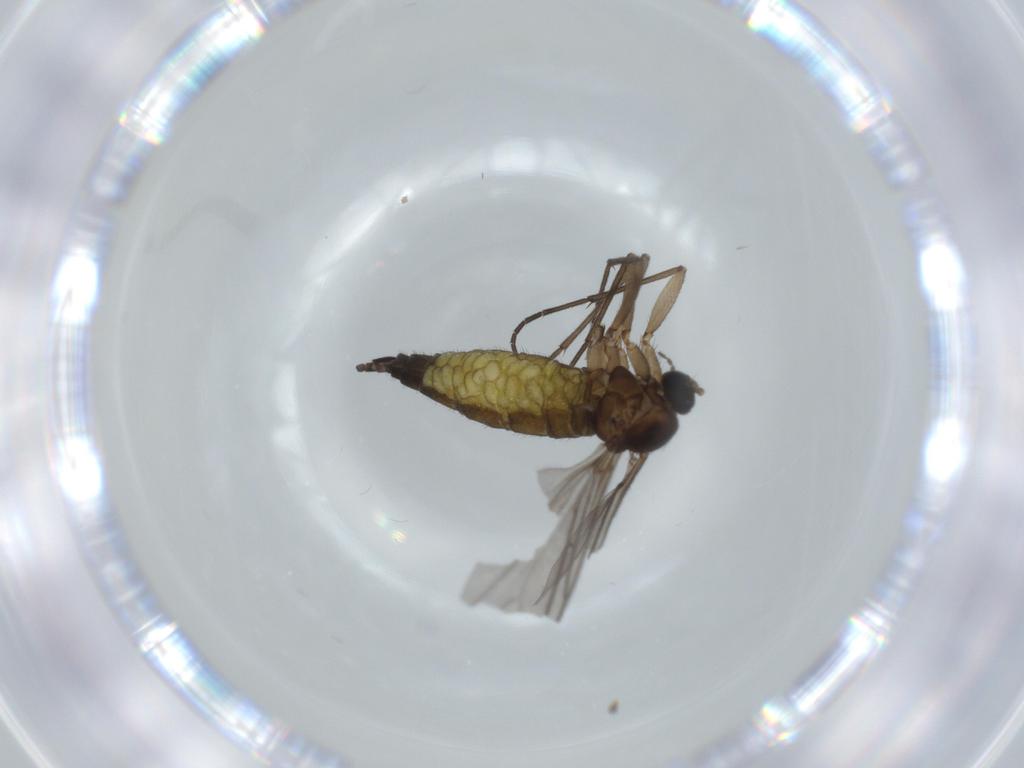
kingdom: Animalia
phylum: Arthropoda
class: Insecta
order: Diptera
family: Sciaridae
